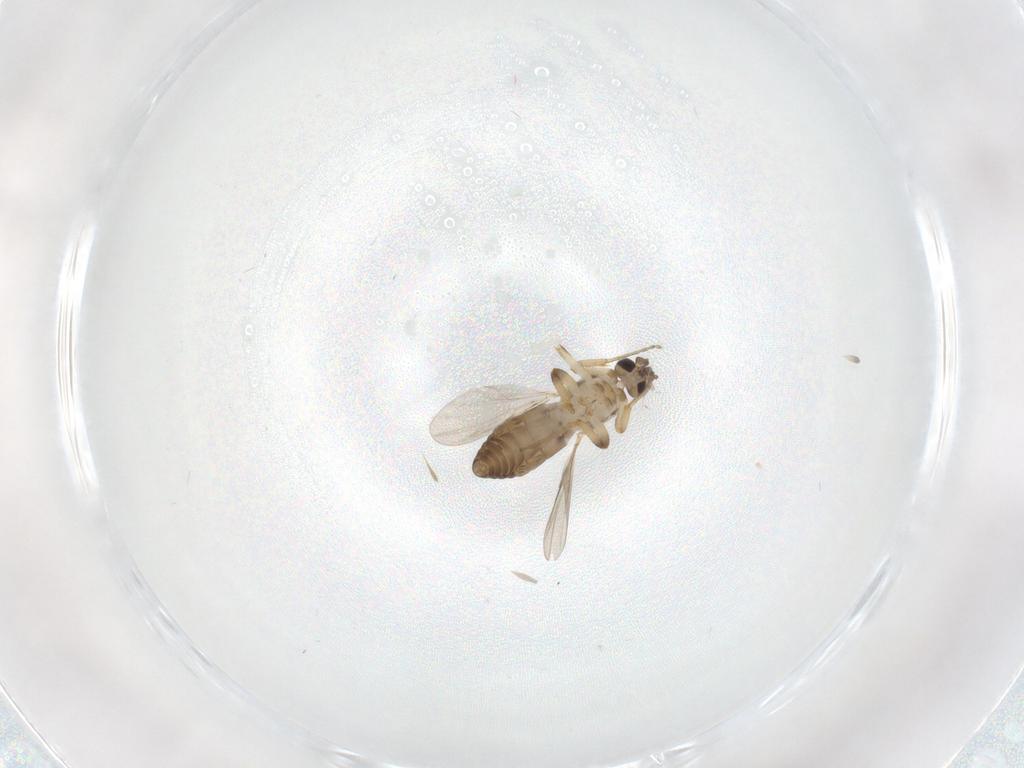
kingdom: Animalia
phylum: Arthropoda
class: Insecta
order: Diptera
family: Ceratopogonidae
